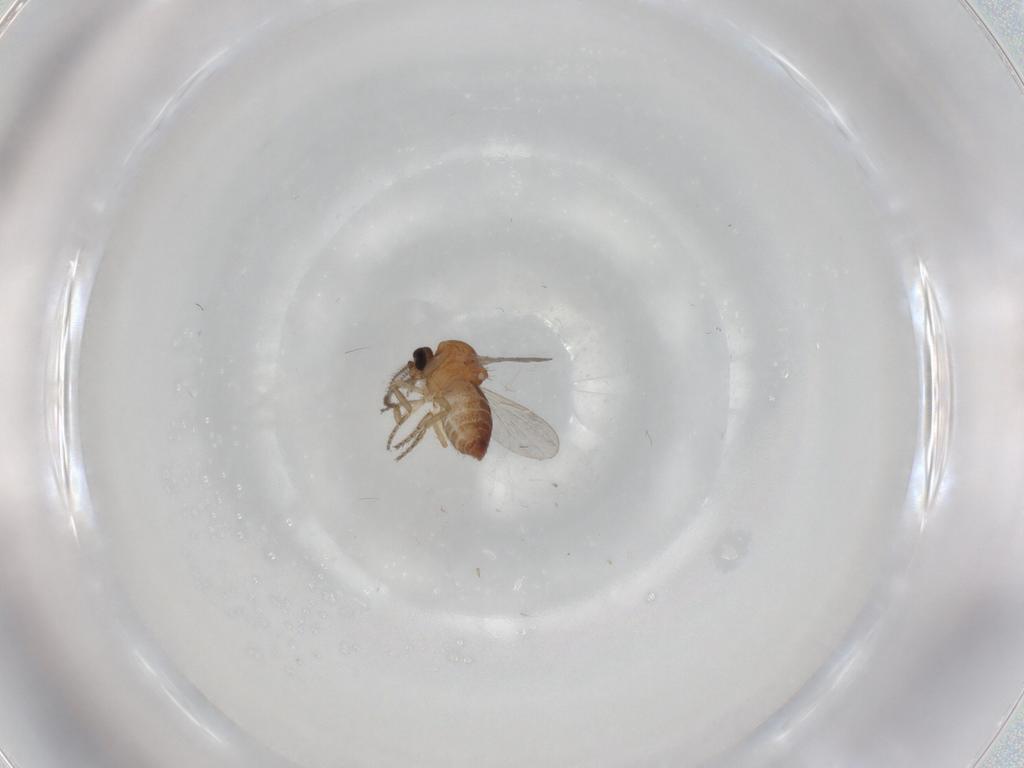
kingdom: Animalia
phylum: Arthropoda
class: Insecta
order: Diptera
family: Ceratopogonidae
